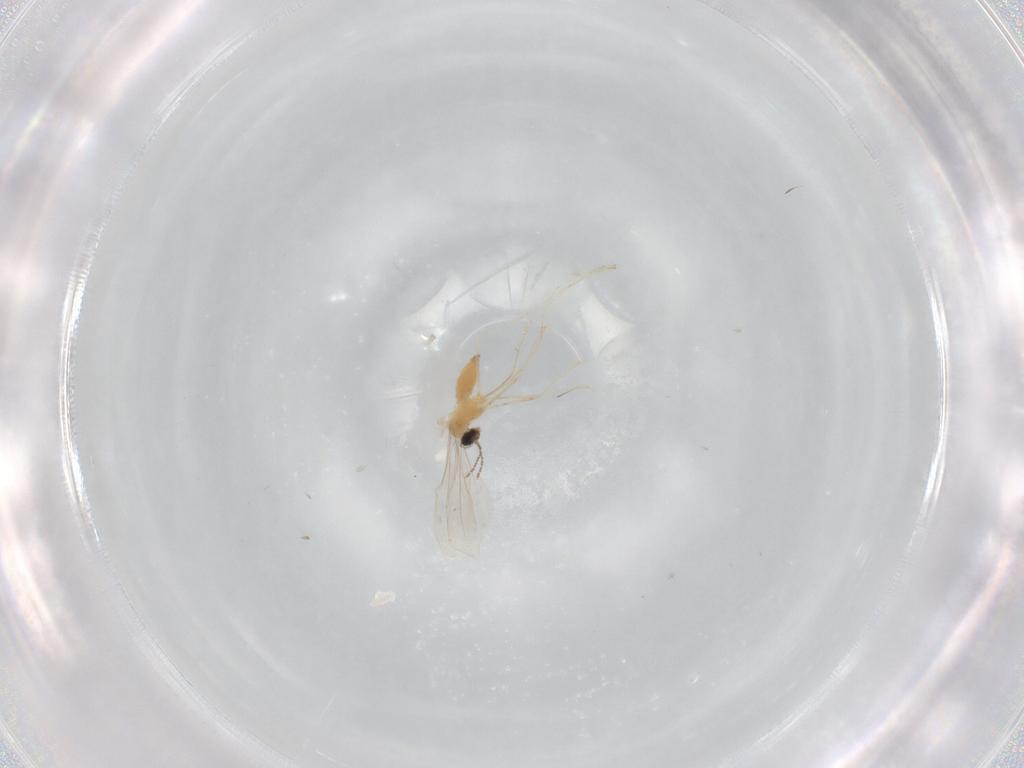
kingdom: Animalia
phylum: Arthropoda
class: Insecta
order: Diptera
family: Cecidomyiidae
